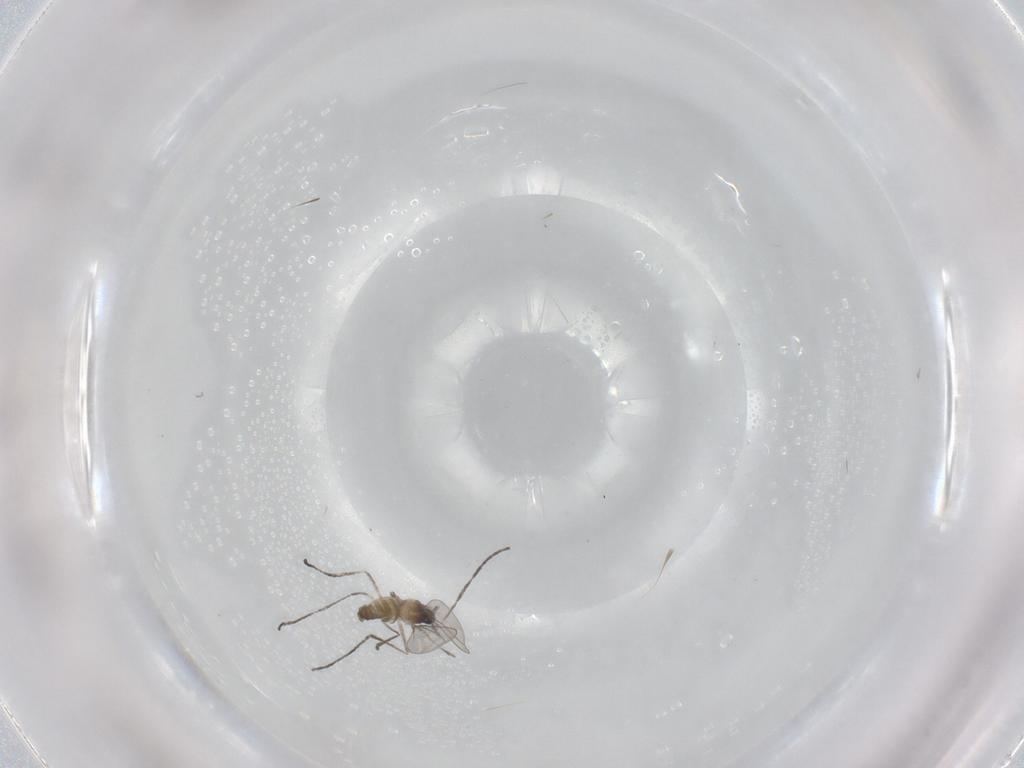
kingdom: Animalia
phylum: Arthropoda
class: Insecta
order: Diptera
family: Cecidomyiidae
